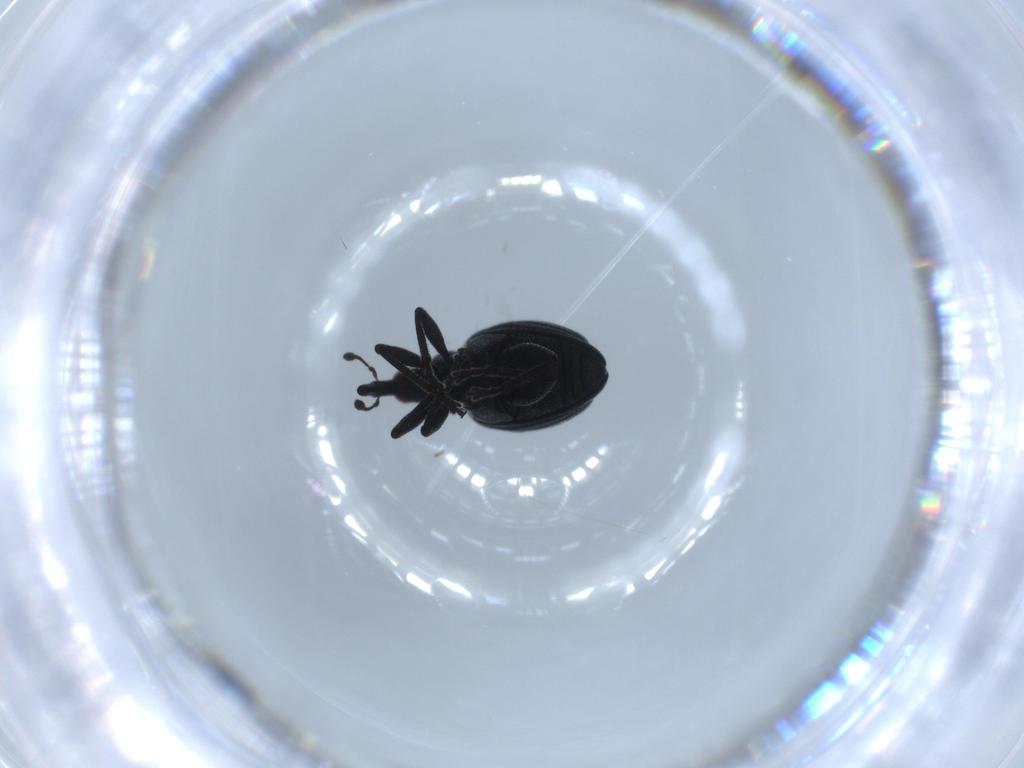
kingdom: Animalia
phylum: Arthropoda
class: Insecta
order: Coleoptera
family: Brentidae
